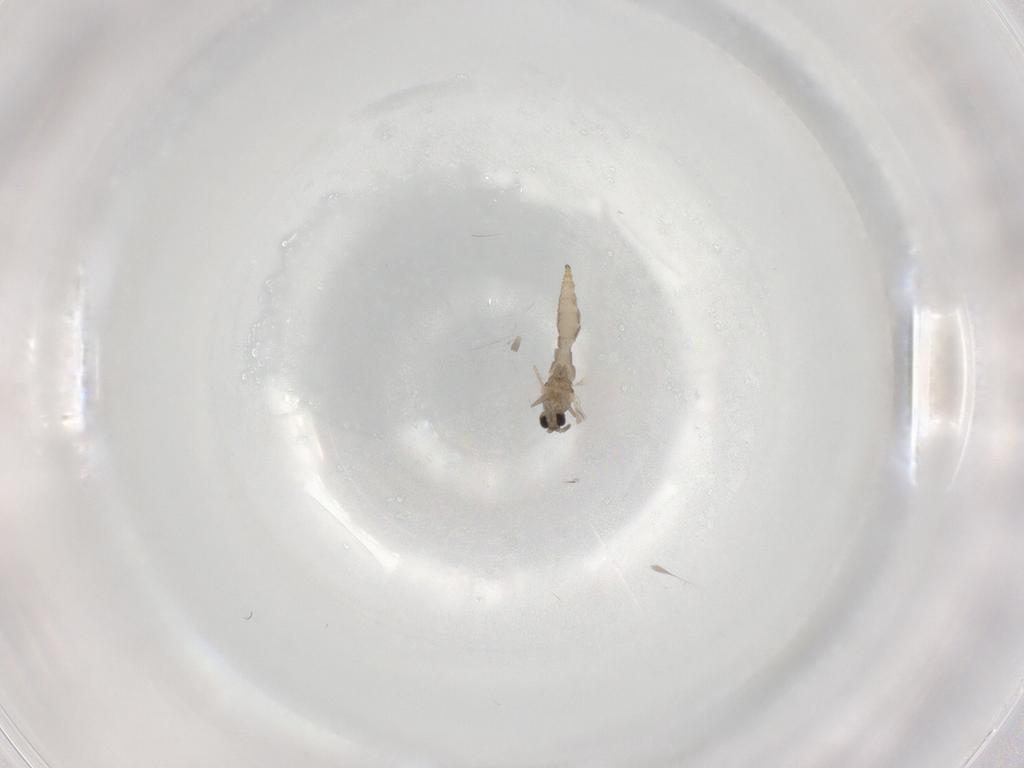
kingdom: Animalia
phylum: Arthropoda
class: Insecta
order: Diptera
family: Cecidomyiidae
